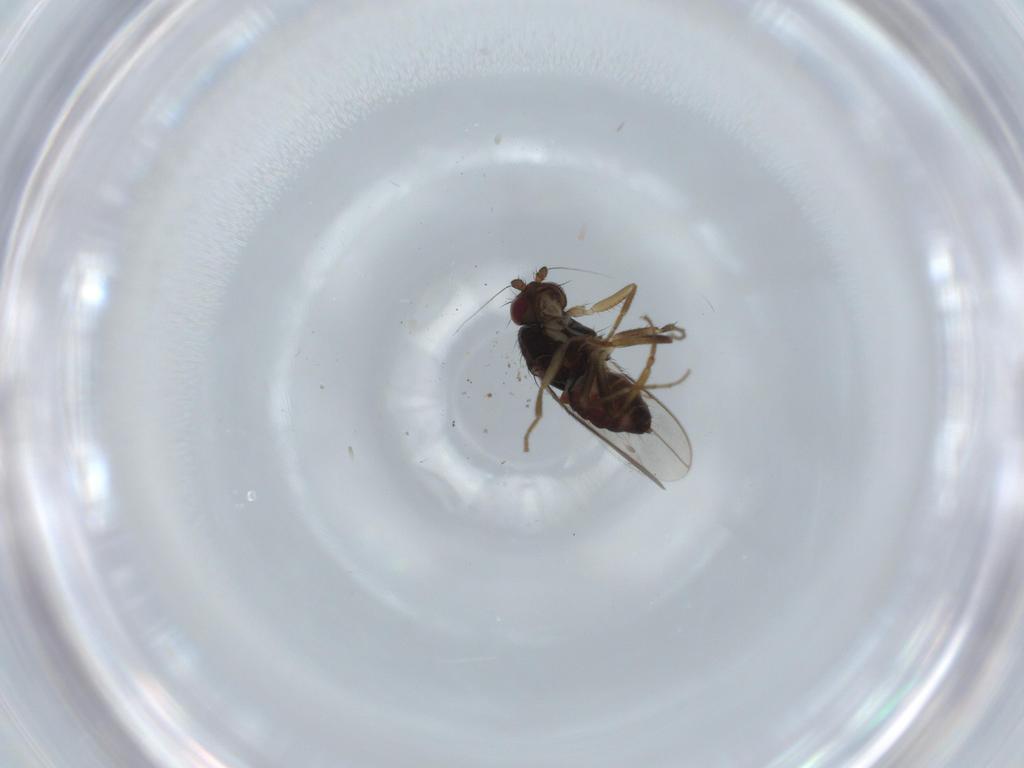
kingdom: Animalia
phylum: Arthropoda
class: Insecta
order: Diptera
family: Sphaeroceridae
